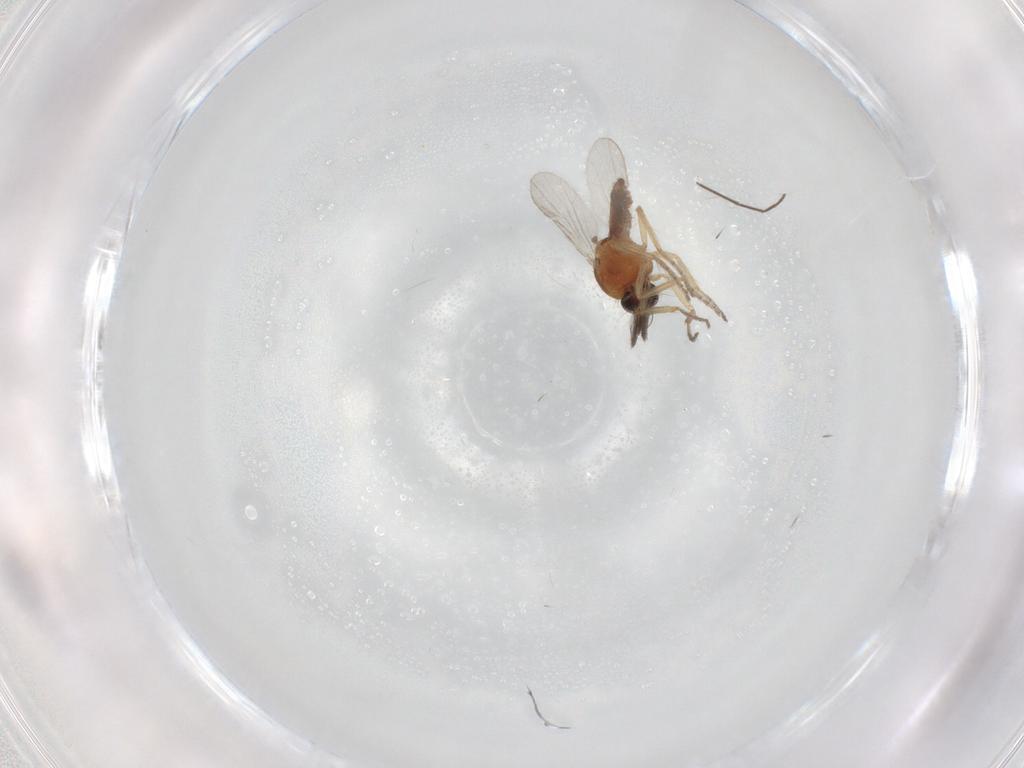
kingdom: Animalia
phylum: Arthropoda
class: Insecta
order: Diptera
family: Ceratopogonidae
